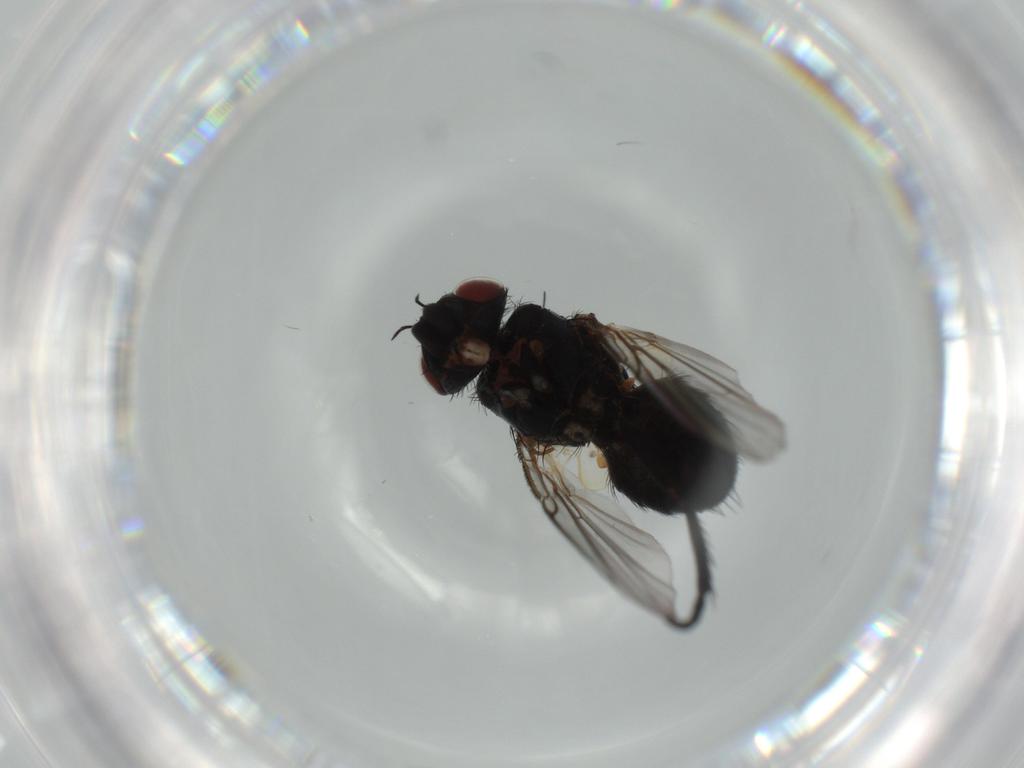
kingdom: Animalia
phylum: Arthropoda
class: Insecta
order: Diptera
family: Tachinidae
